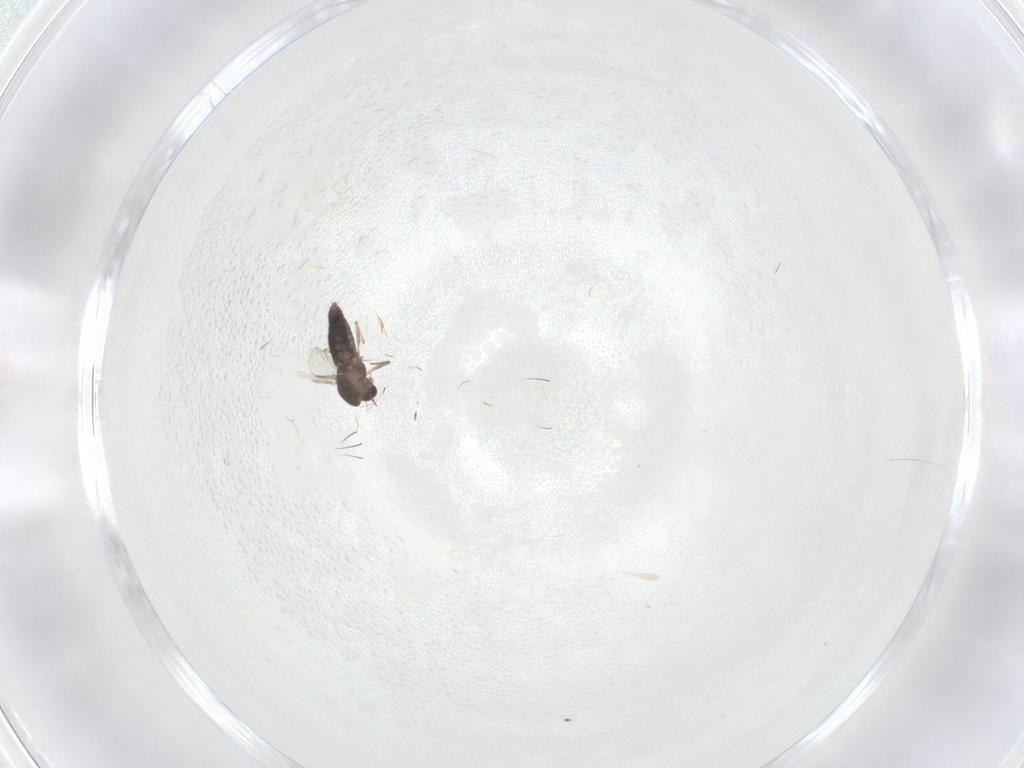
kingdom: Animalia
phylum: Arthropoda
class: Insecta
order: Diptera
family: Chironomidae
